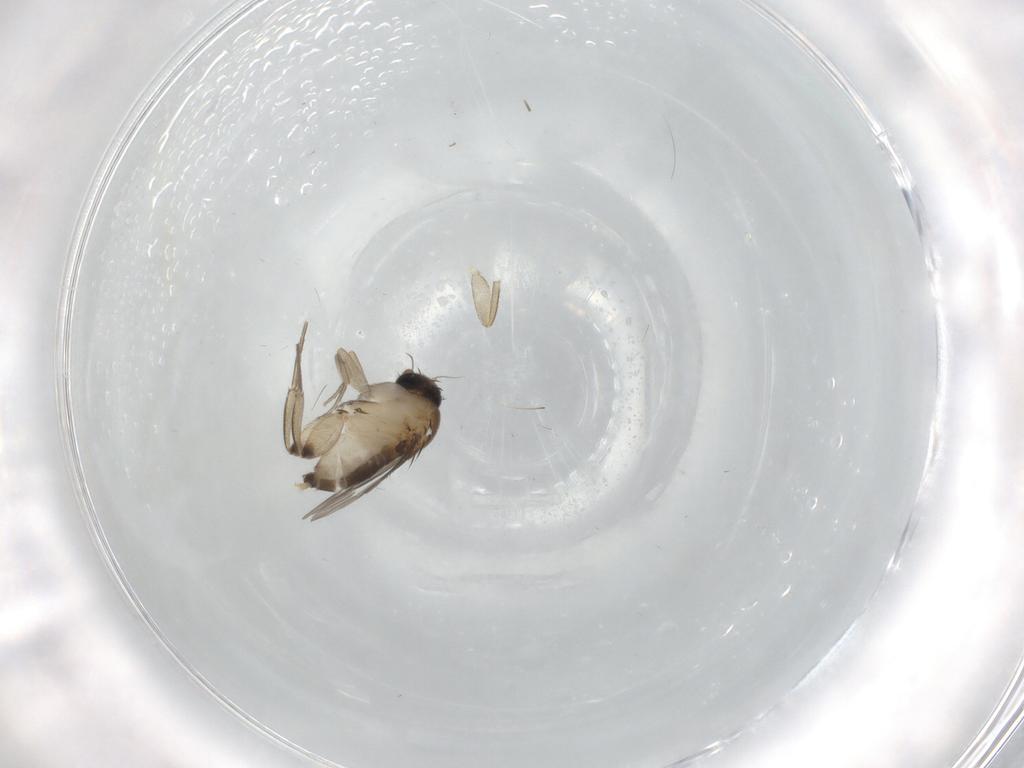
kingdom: Animalia
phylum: Arthropoda
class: Insecta
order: Diptera
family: Phoridae
